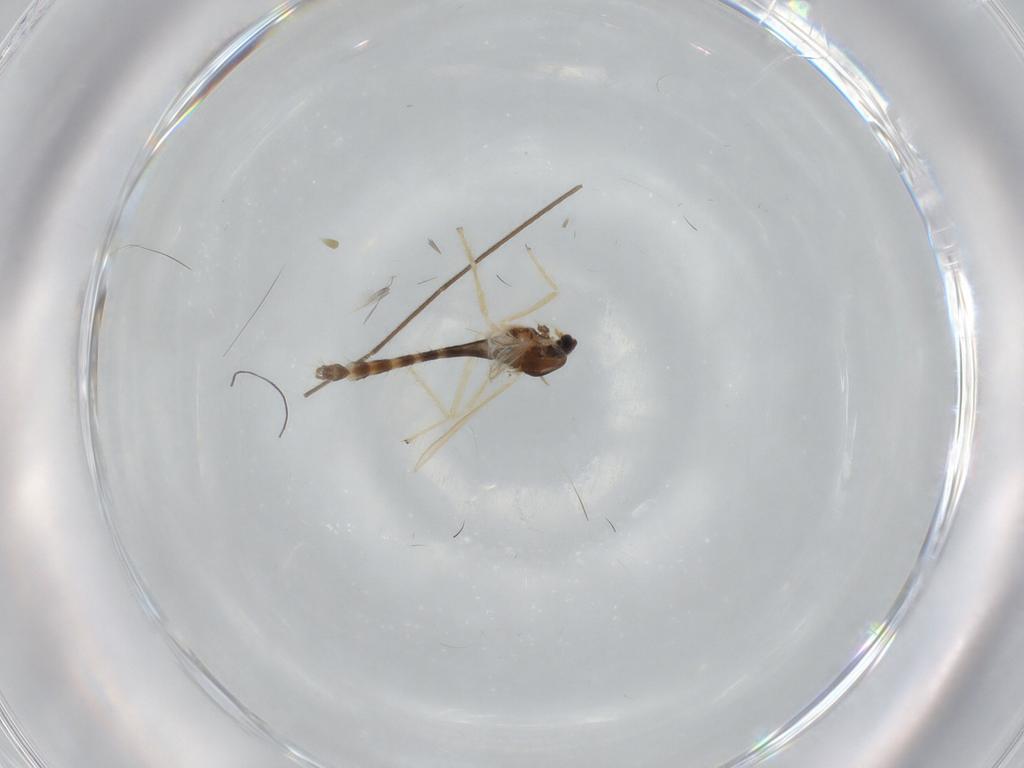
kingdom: Animalia
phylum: Arthropoda
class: Insecta
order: Diptera
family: Chironomidae
